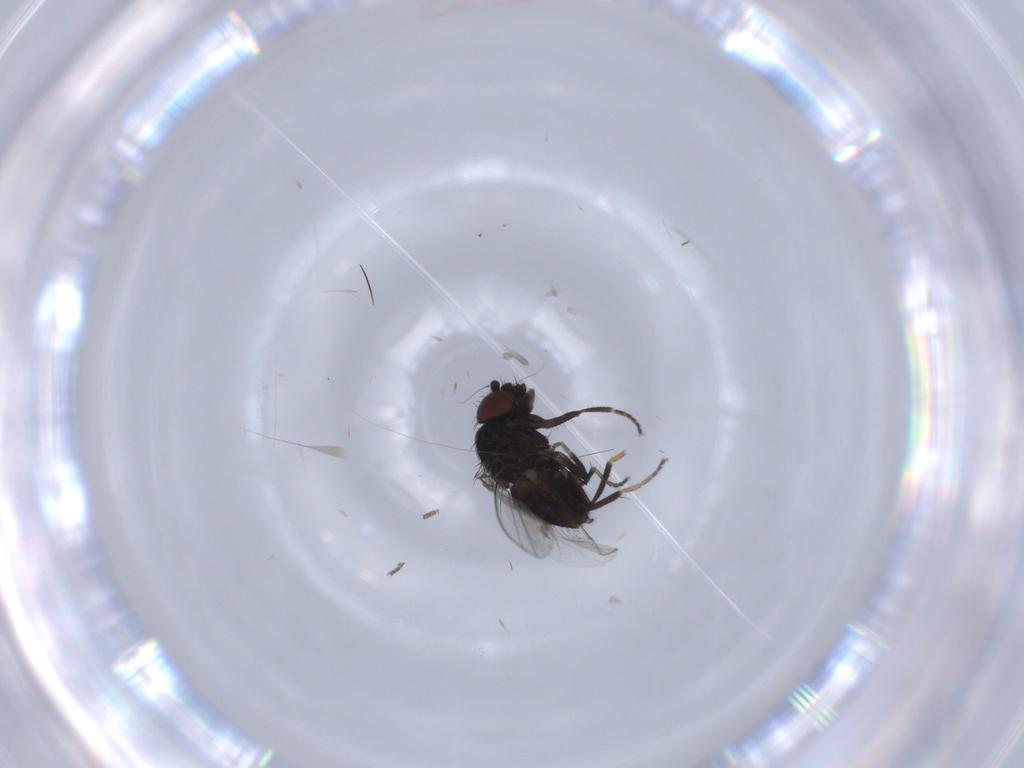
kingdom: Animalia
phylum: Arthropoda
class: Insecta
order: Diptera
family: Milichiidae
